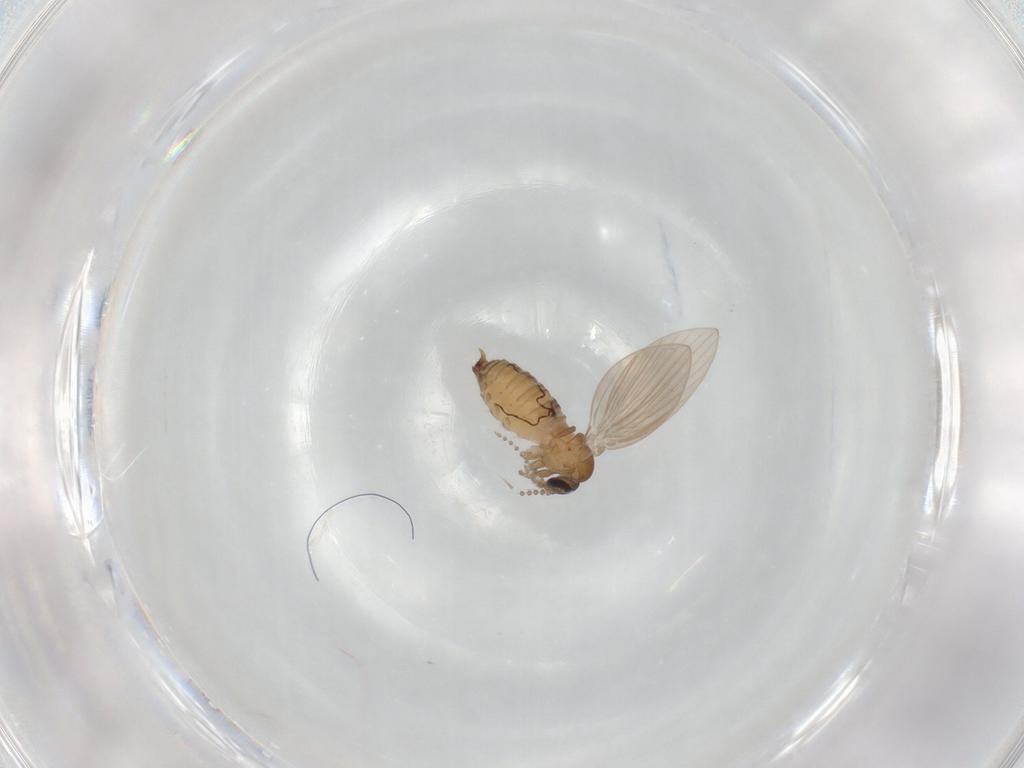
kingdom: Animalia
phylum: Arthropoda
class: Insecta
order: Diptera
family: Psychodidae
